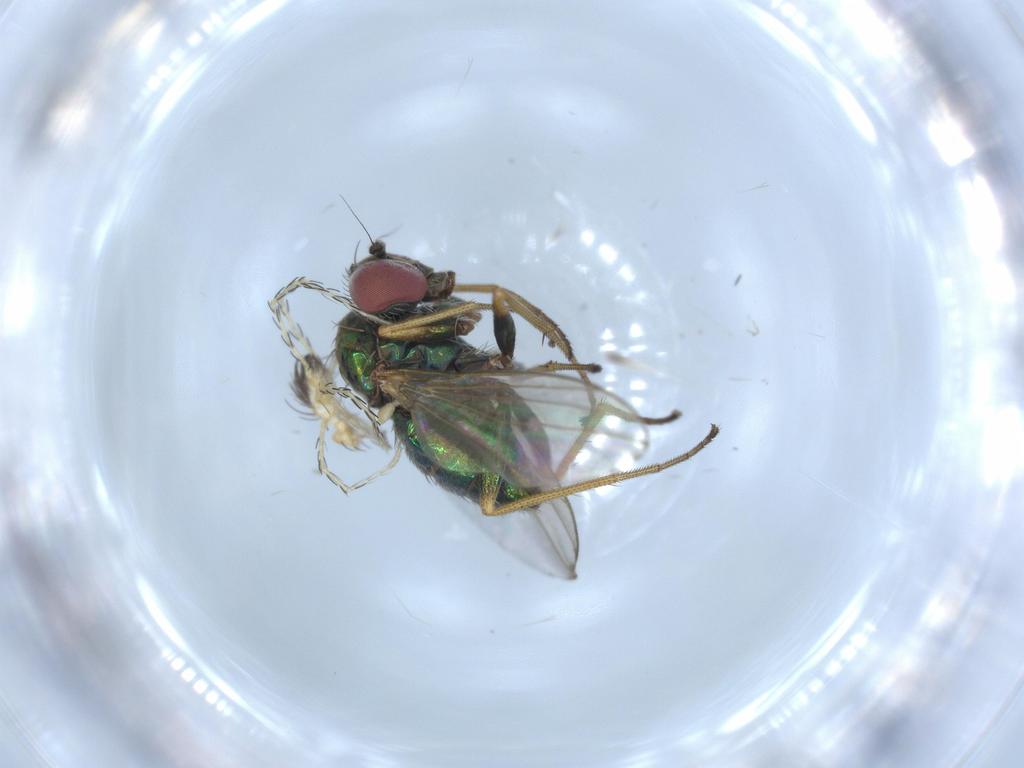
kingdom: Animalia
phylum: Arthropoda
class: Insecta
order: Diptera
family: Dolichopodidae
